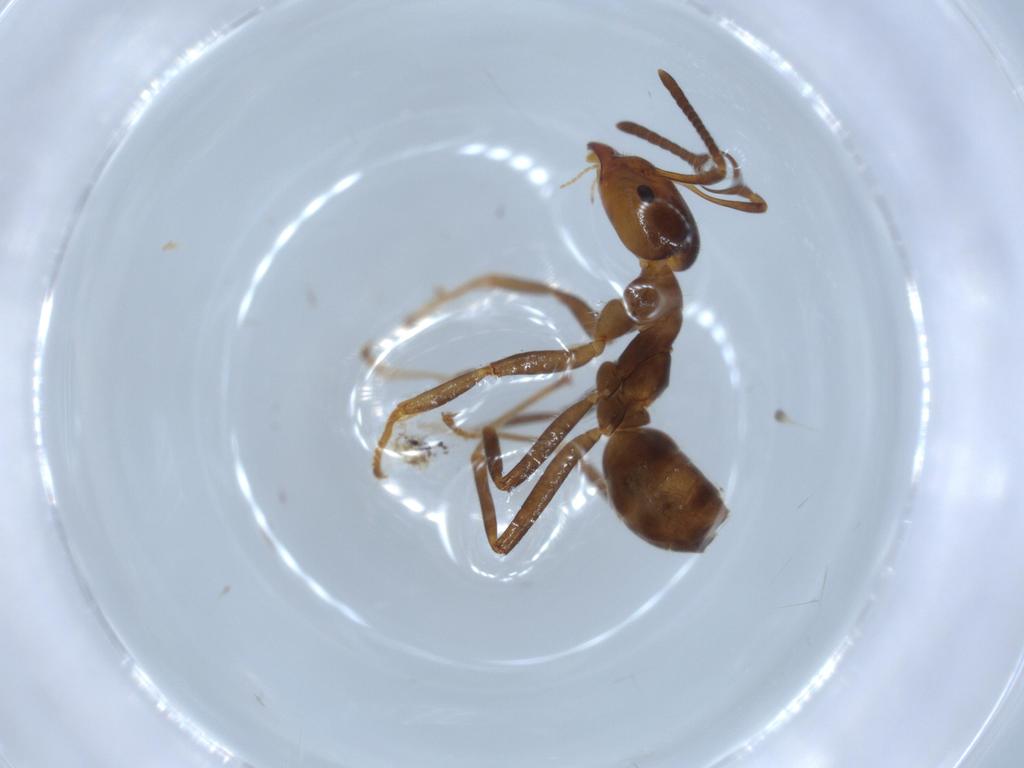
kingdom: Animalia
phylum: Arthropoda
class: Insecta
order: Hymenoptera
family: Formicidae
